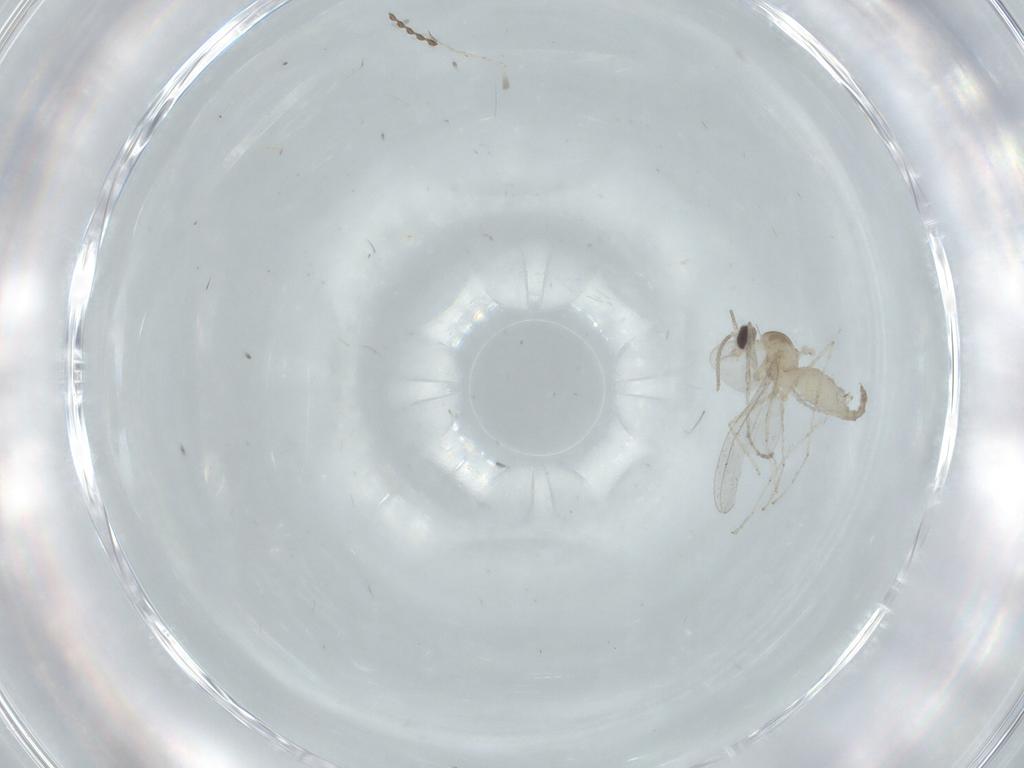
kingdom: Animalia
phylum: Arthropoda
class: Insecta
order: Diptera
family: Cecidomyiidae
